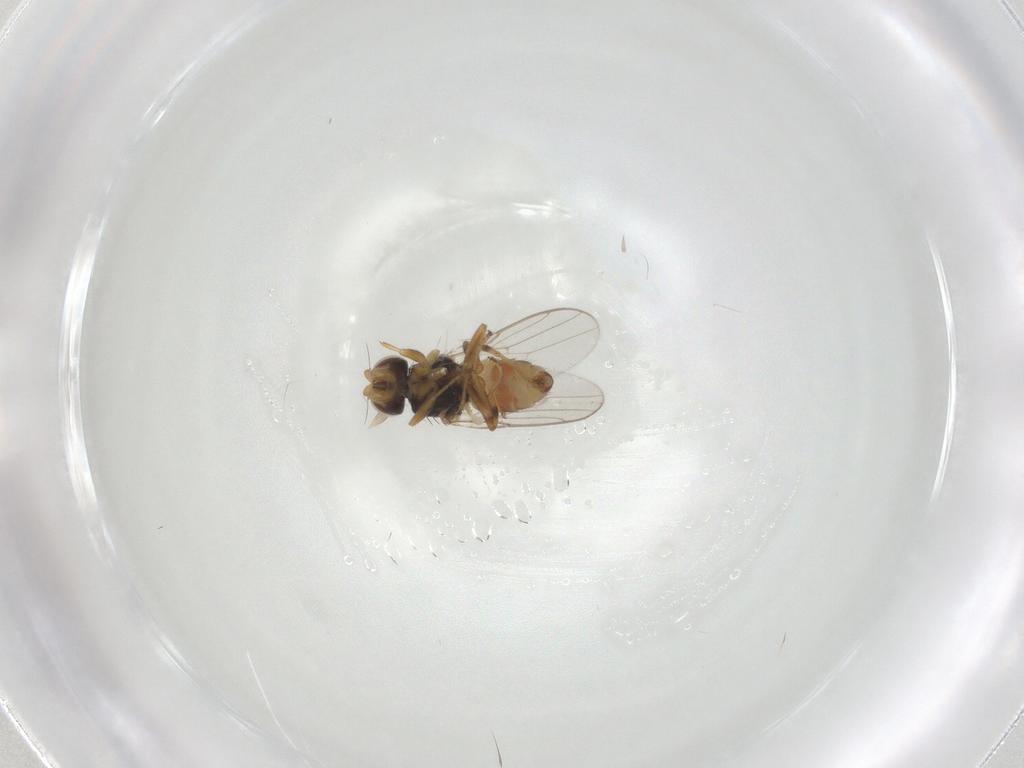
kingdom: Animalia
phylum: Arthropoda
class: Insecta
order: Diptera
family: Chloropidae
